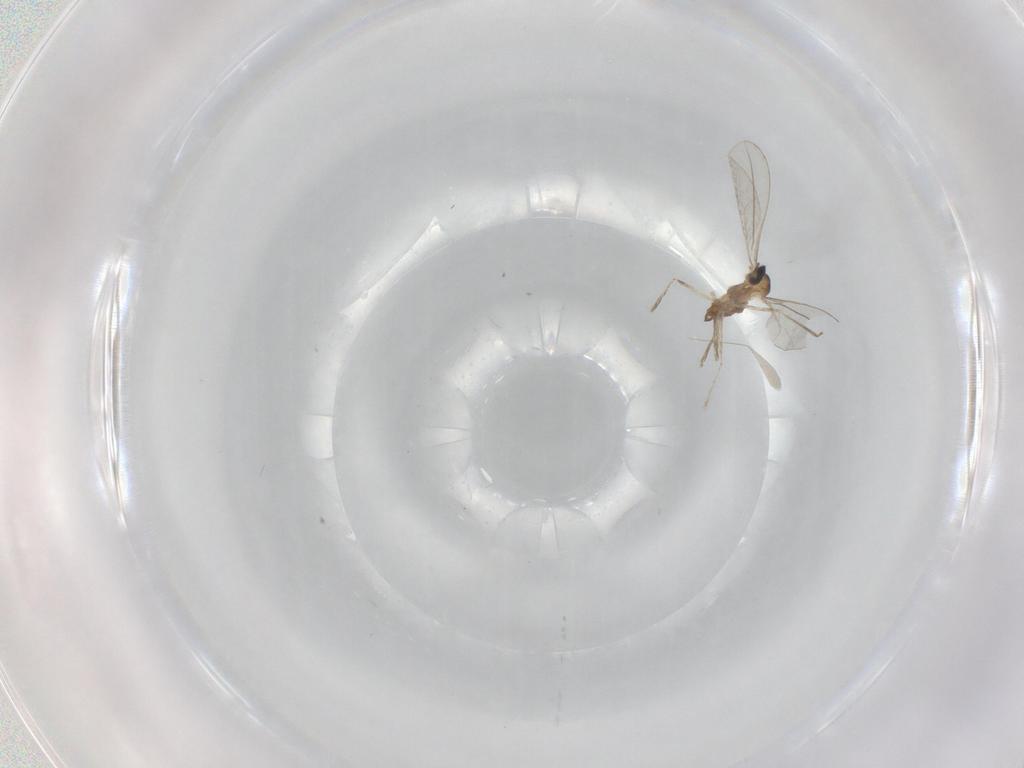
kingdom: Animalia
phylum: Arthropoda
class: Insecta
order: Diptera
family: Cecidomyiidae
